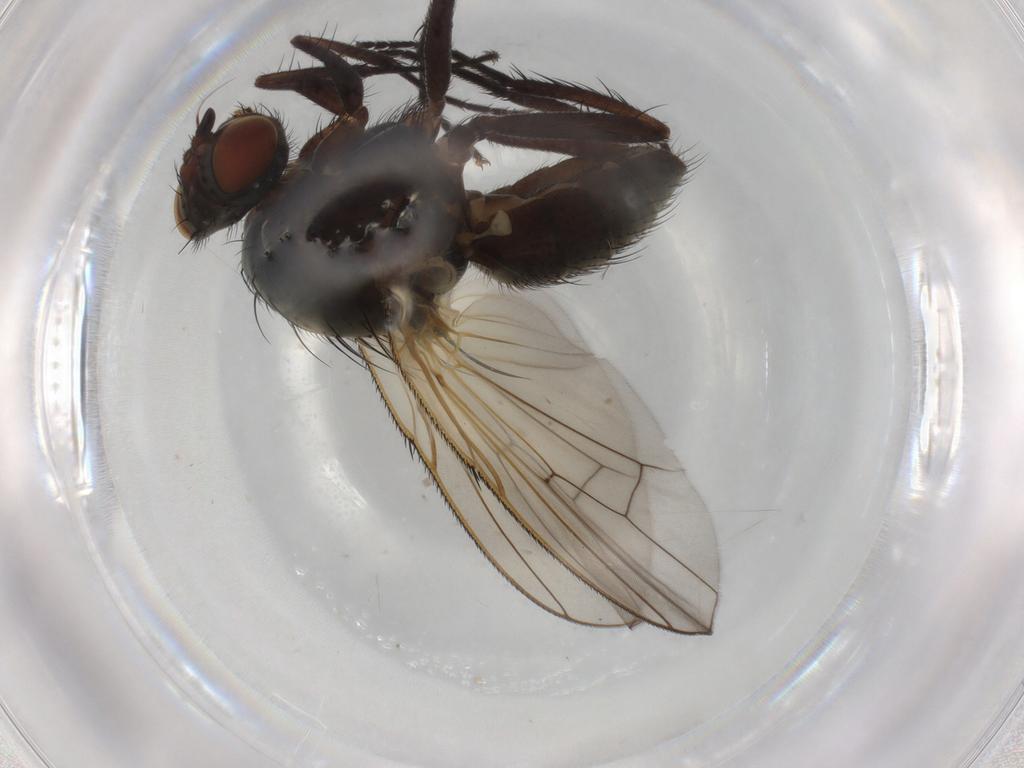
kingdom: Animalia
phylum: Arthropoda
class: Insecta
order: Diptera
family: Anthomyiidae
